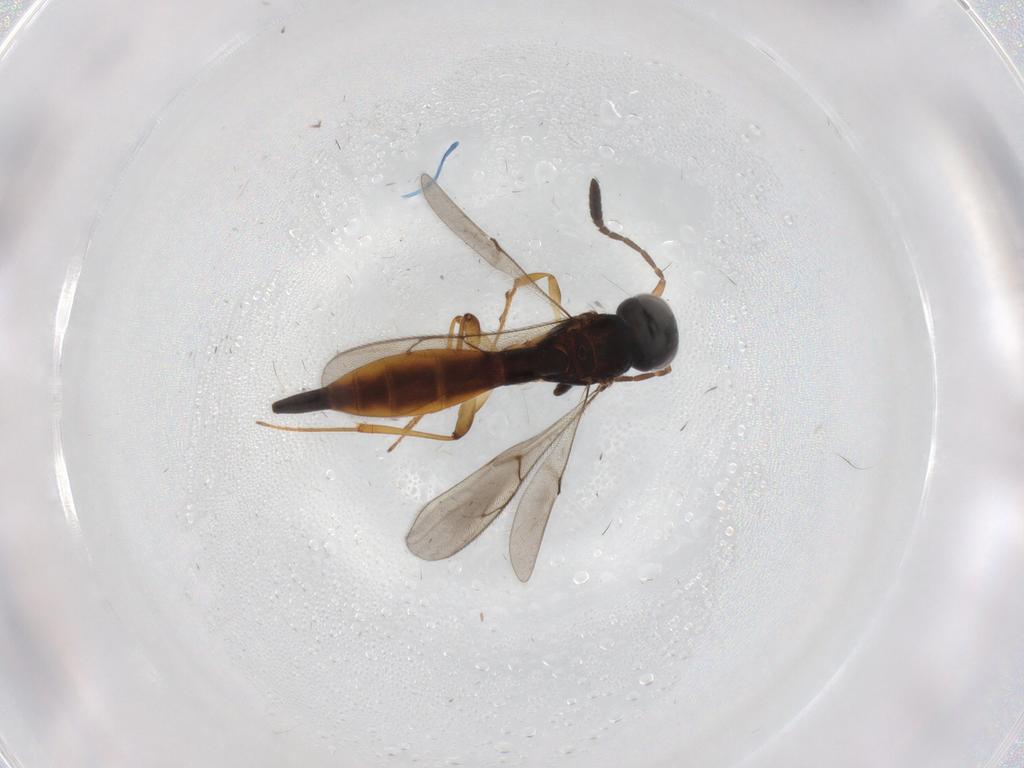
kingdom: Animalia
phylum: Arthropoda
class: Insecta
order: Hymenoptera
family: Scelionidae
